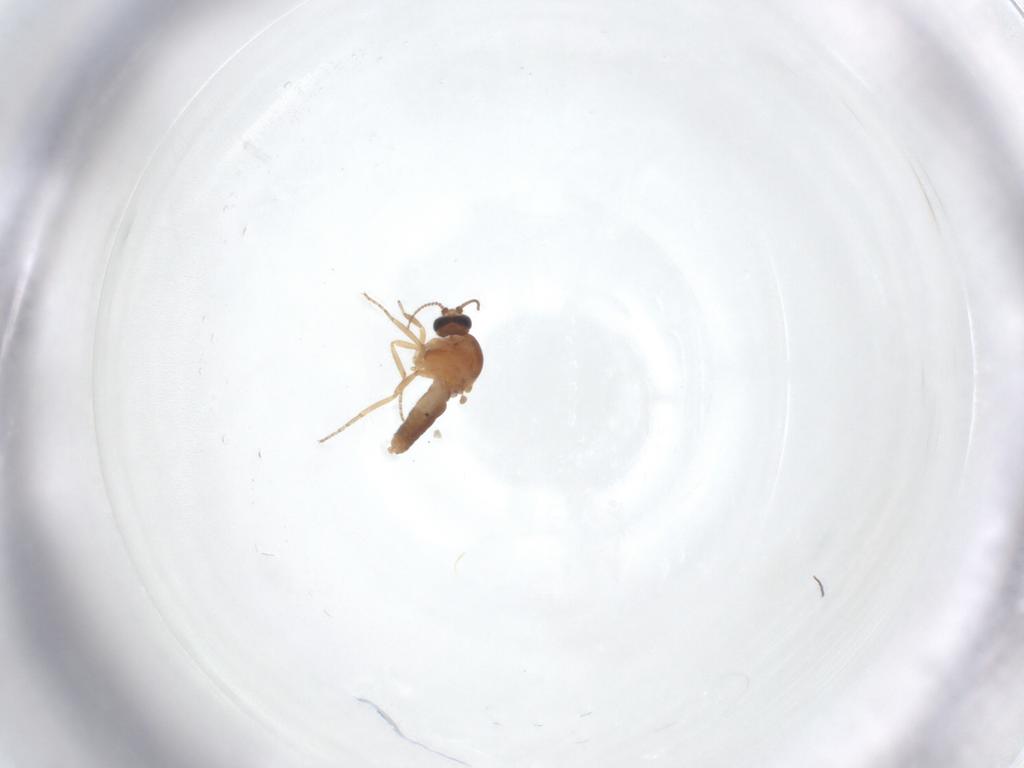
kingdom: Animalia
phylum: Arthropoda
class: Insecta
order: Diptera
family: Ceratopogonidae
